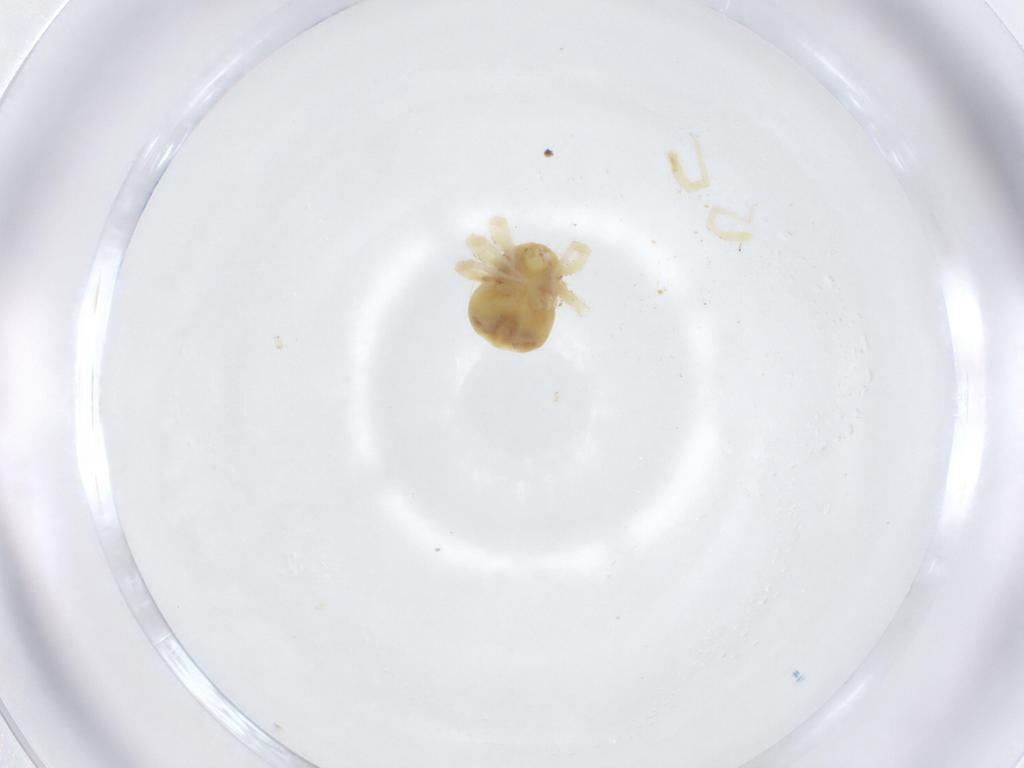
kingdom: Animalia
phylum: Arthropoda
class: Arachnida
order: Trombidiformes
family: Anystidae
